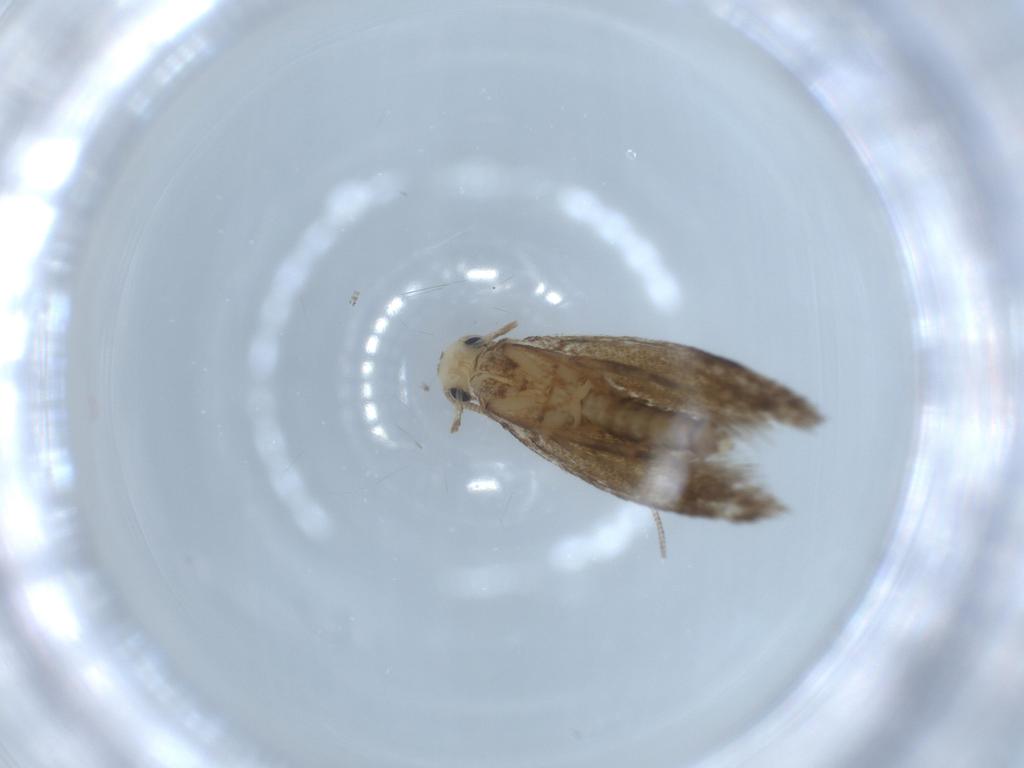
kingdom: Animalia
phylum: Arthropoda
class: Insecta
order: Lepidoptera
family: Tineidae
